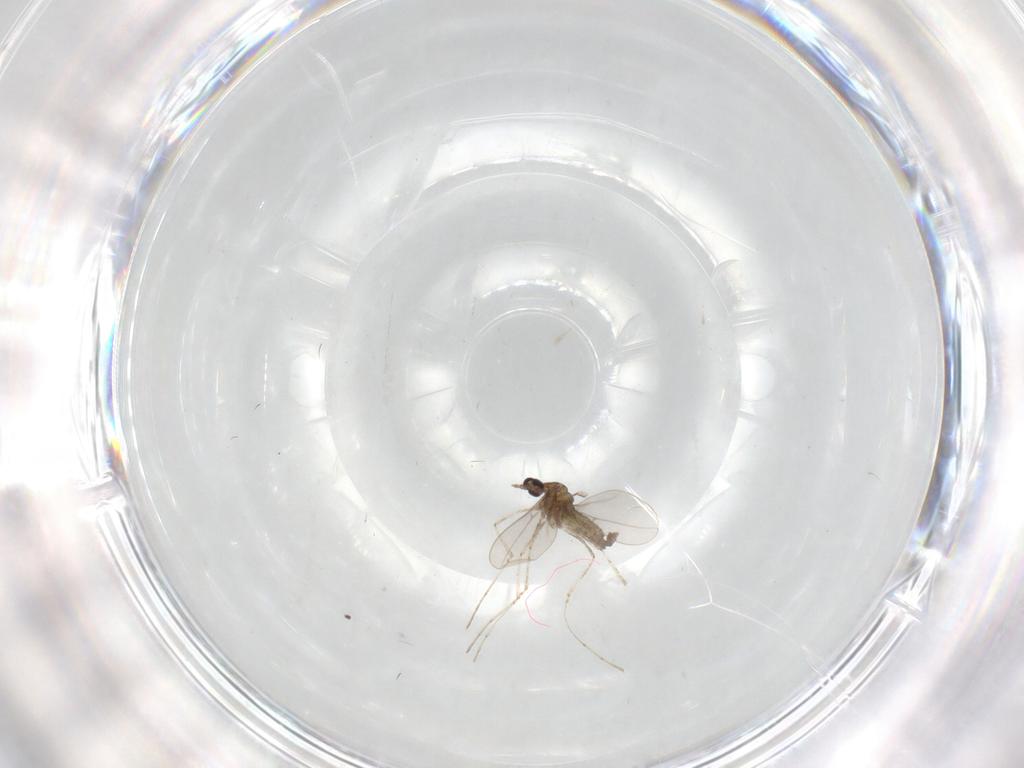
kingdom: Animalia
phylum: Arthropoda
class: Insecta
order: Diptera
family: Cecidomyiidae
